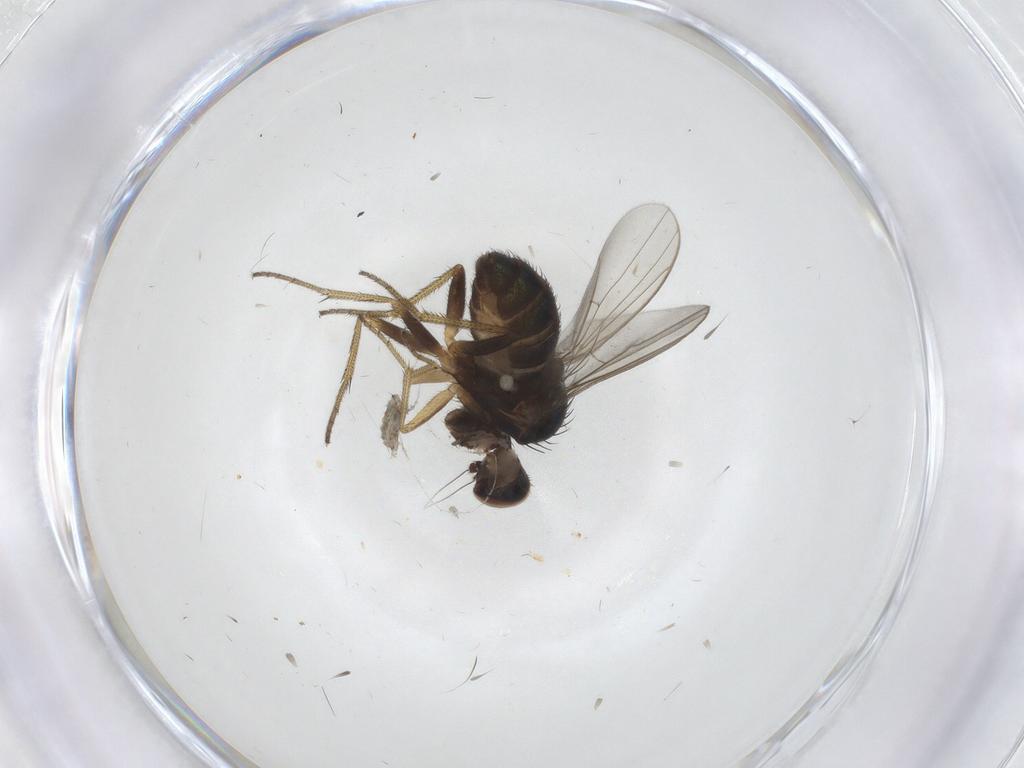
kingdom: Animalia
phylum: Arthropoda
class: Insecta
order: Diptera
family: Dolichopodidae
